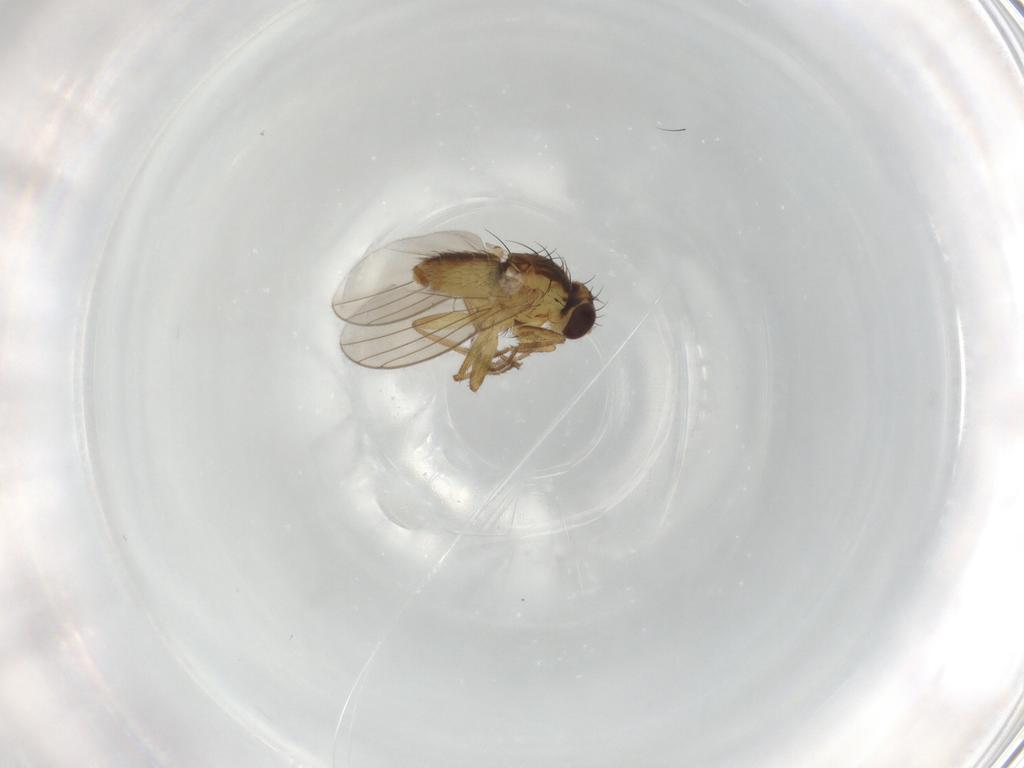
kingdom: Animalia
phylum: Arthropoda
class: Insecta
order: Diptera
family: Agromyzidae
